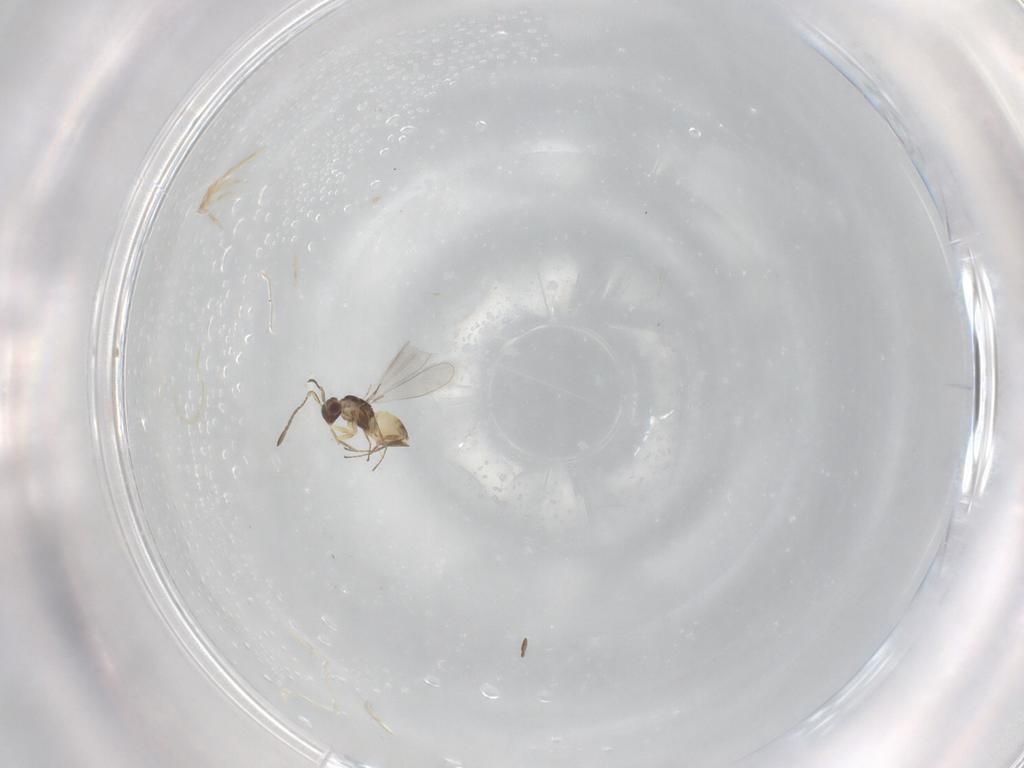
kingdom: Animalia
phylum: Arthropoda
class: Insecta
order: Hymenoptera
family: Mymaridae
